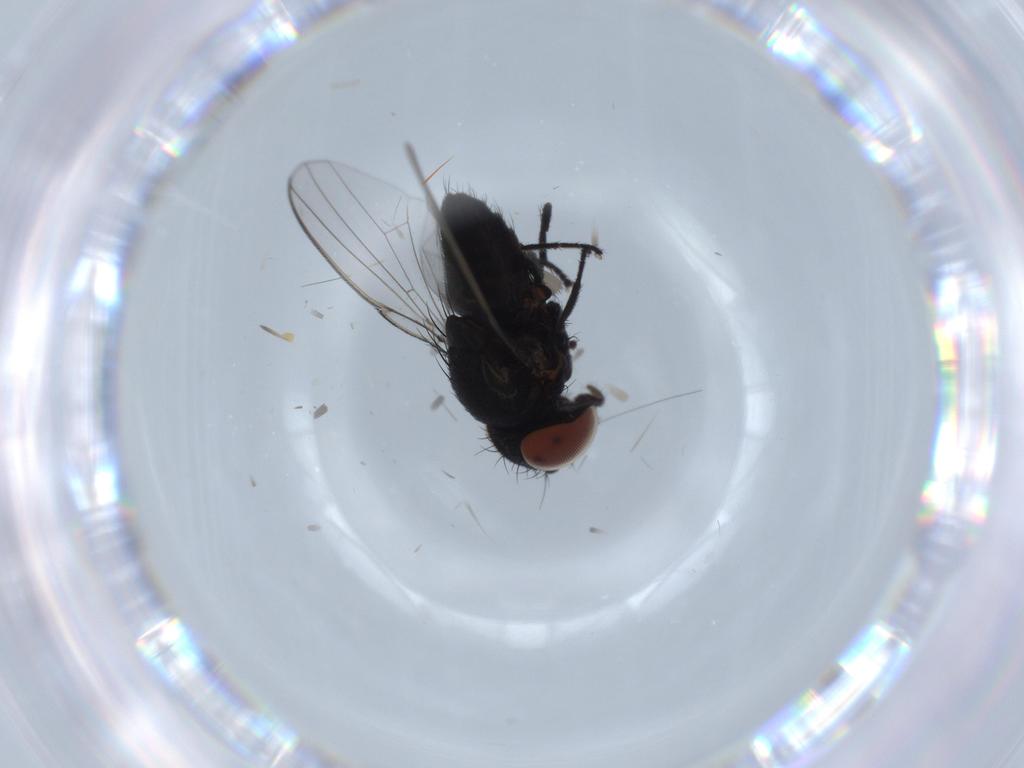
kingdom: Animalia
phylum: Arthropoda
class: Insecta
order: Diptera
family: Milichiidae
